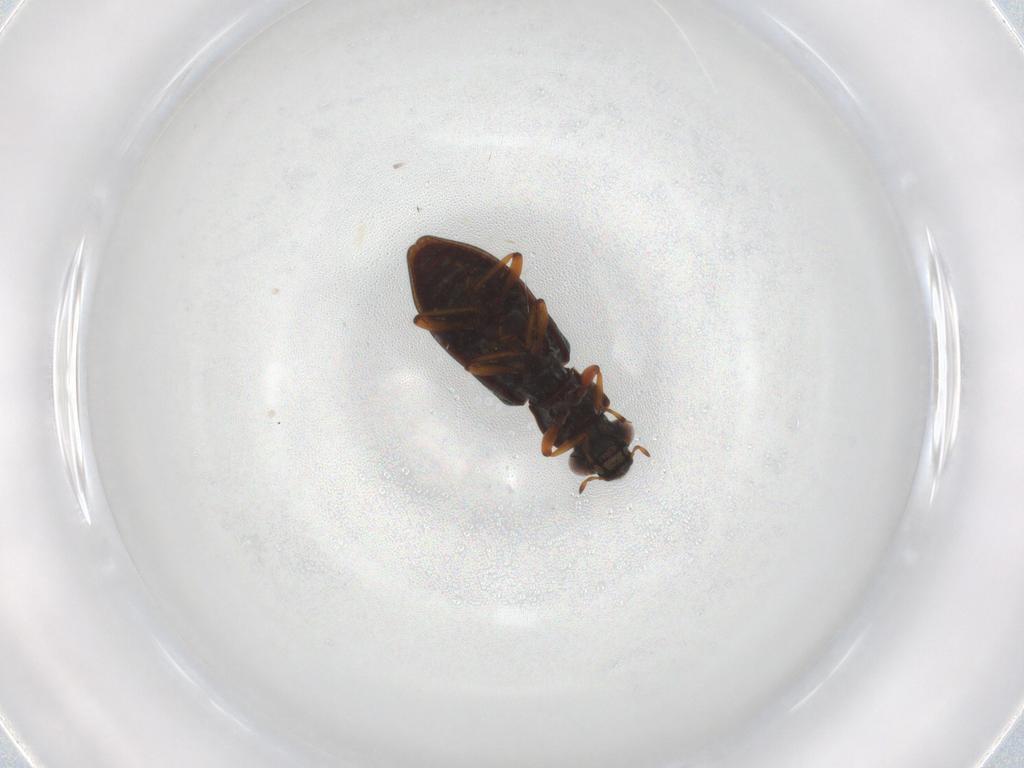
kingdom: Animalia
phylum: Arthropoda
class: Insecta
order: Coleoptera
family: Hydrophilidae
